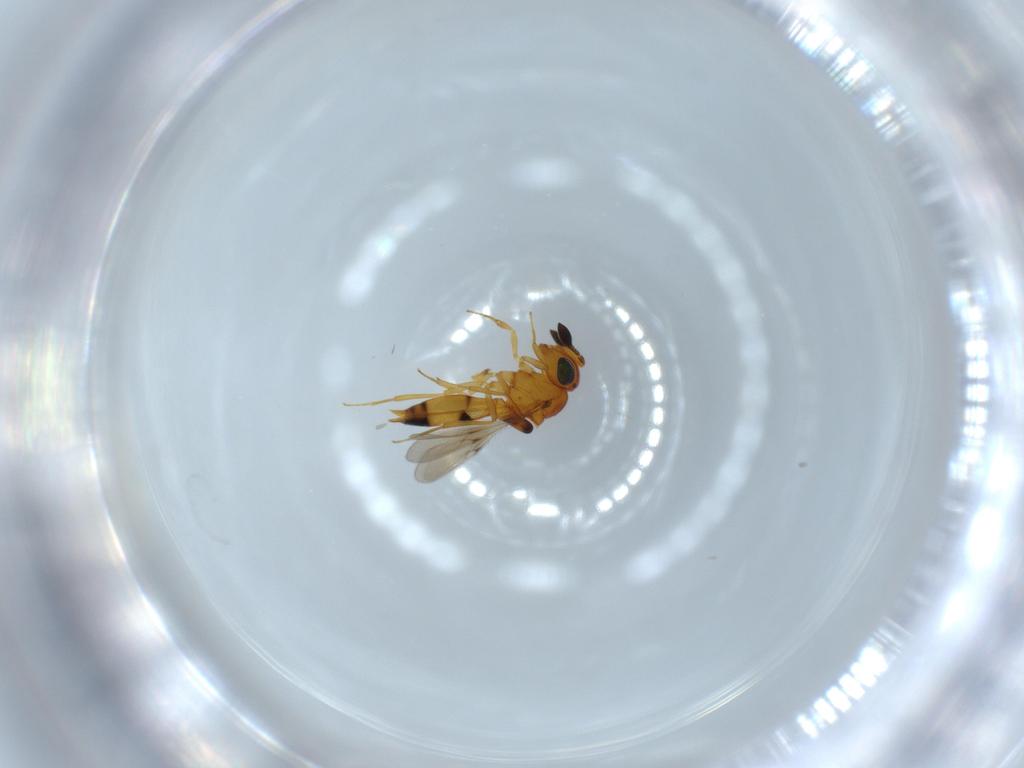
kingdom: Animalia
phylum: Arthropoda
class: Insecta
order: Hymenoptera
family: Scelionidae
